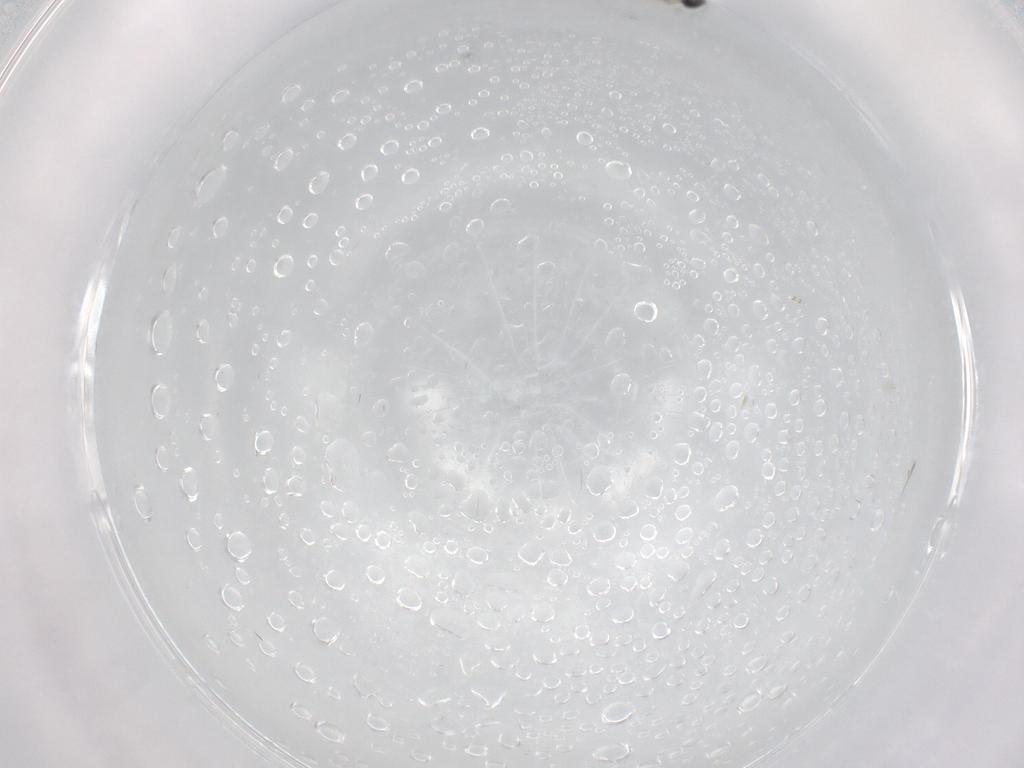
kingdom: Animalia
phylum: Arthropoda
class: Insecta
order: Diptera
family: Cecidomyiidae
